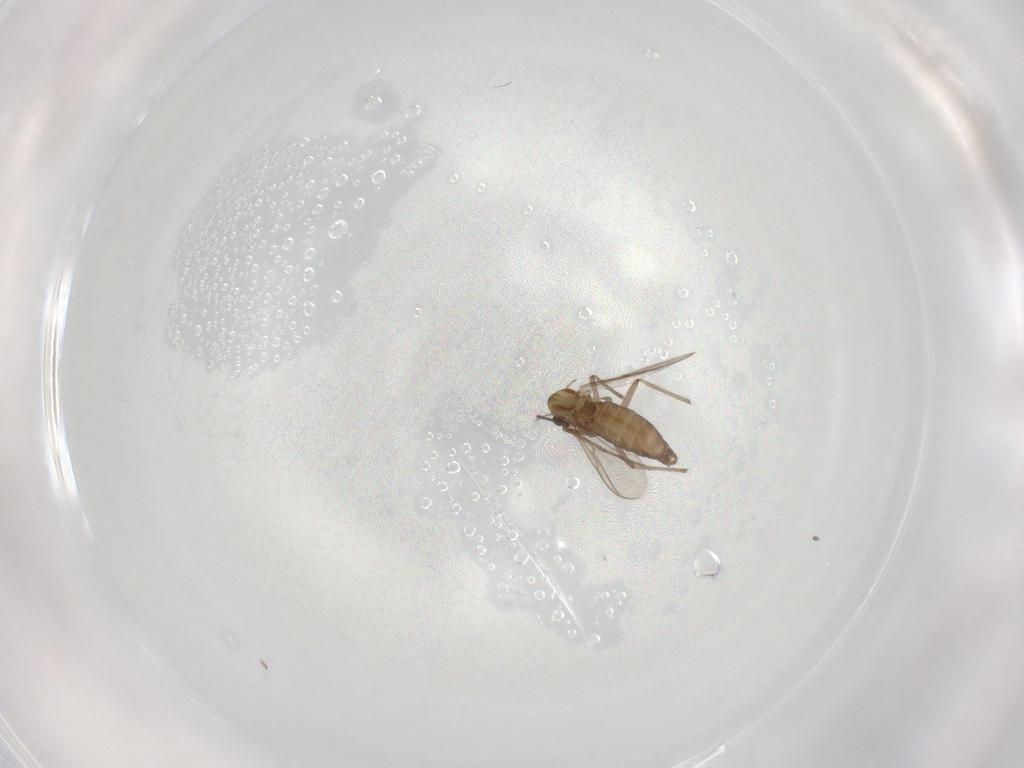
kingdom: Animalia
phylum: Arthropoda
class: Insecta
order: Diptera
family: Chironomidae
